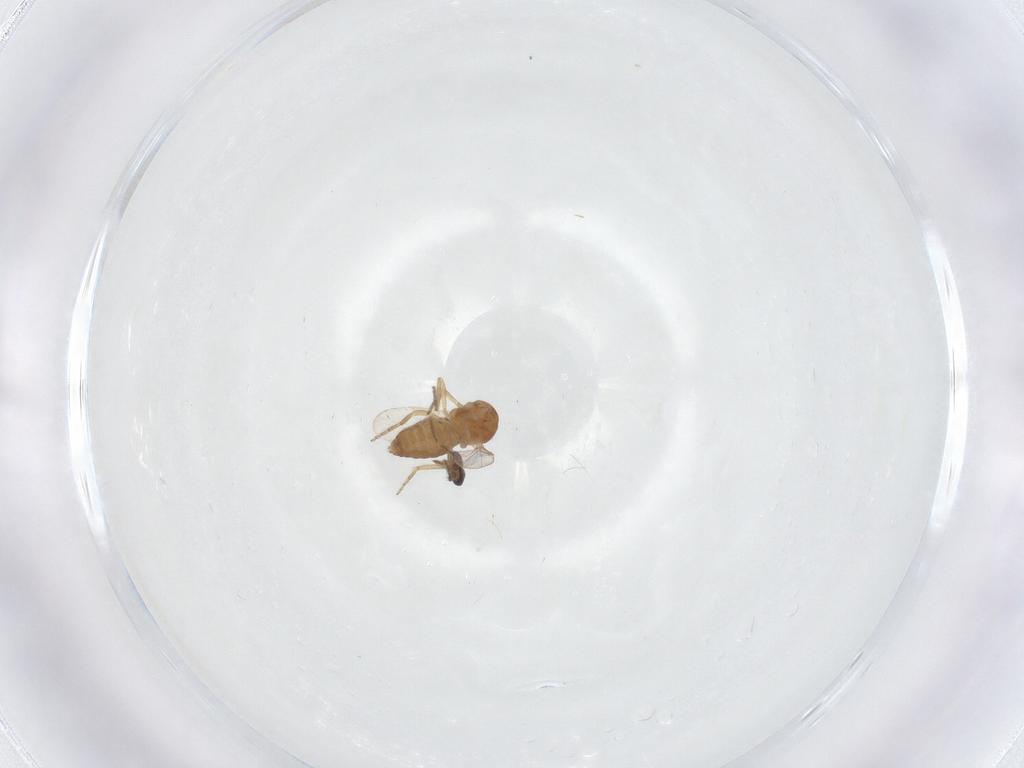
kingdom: Animalia
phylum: Arthropoda
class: Insecta
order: Diptera
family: Ceratopogonidae
